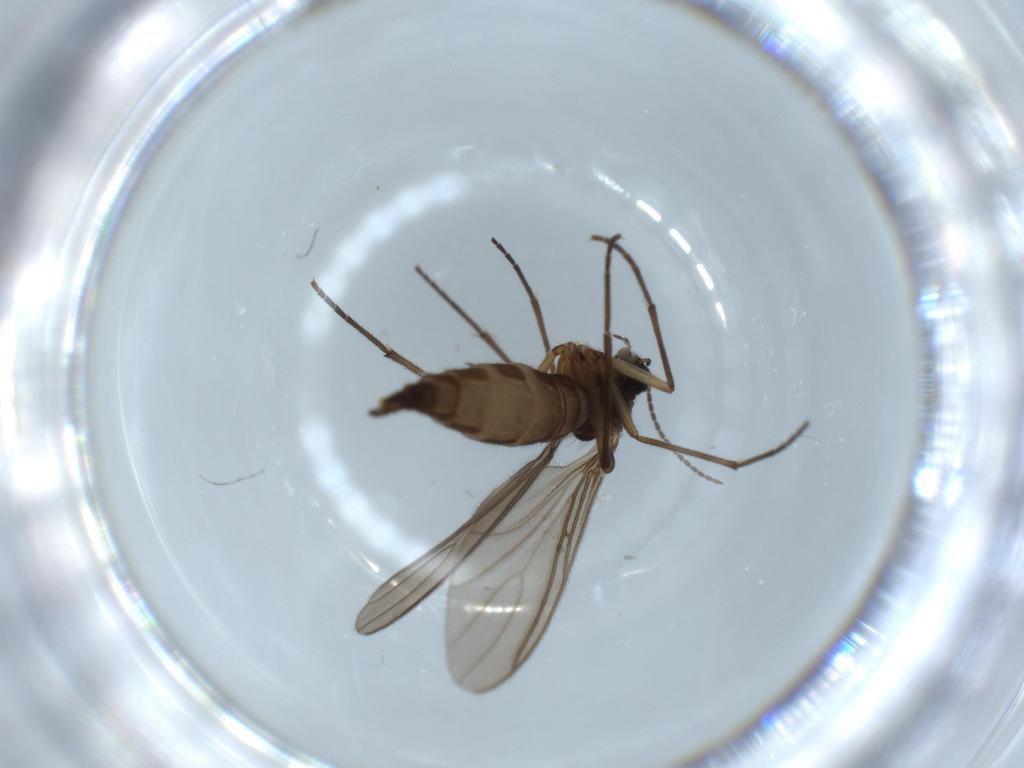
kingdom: Animalia
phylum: Arthropoda
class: Insecta
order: Diptera
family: Sciaridae
